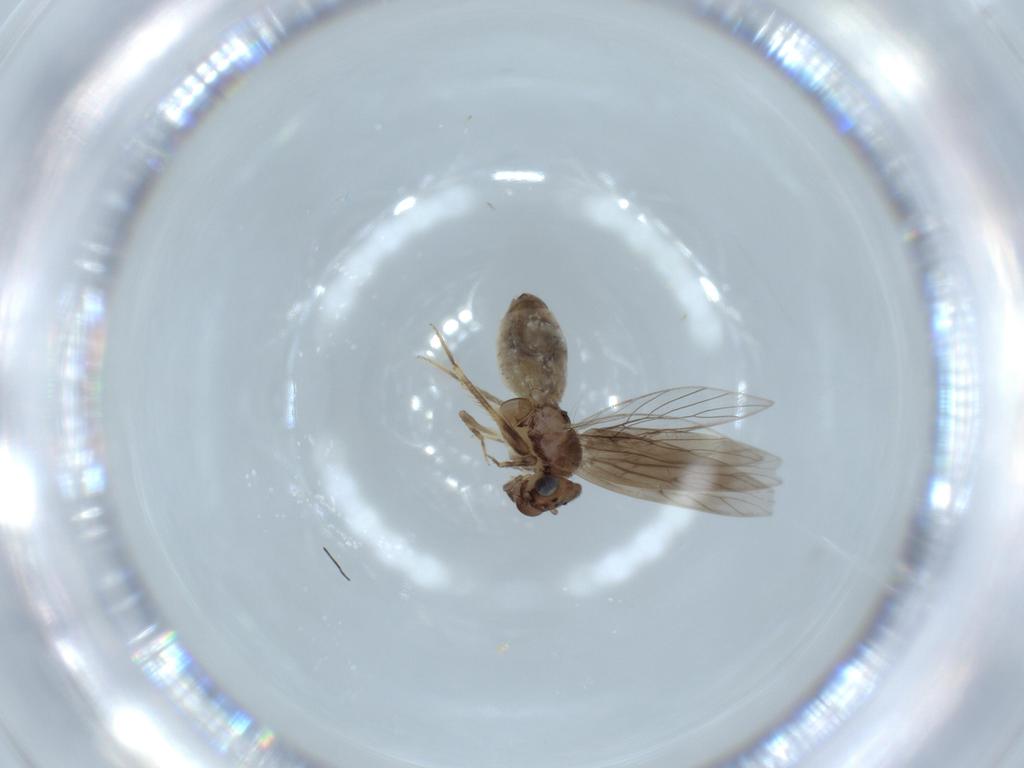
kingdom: Animalia
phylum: Arthropoda
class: Insecta
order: Psocodea
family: Lepidopsocidae
